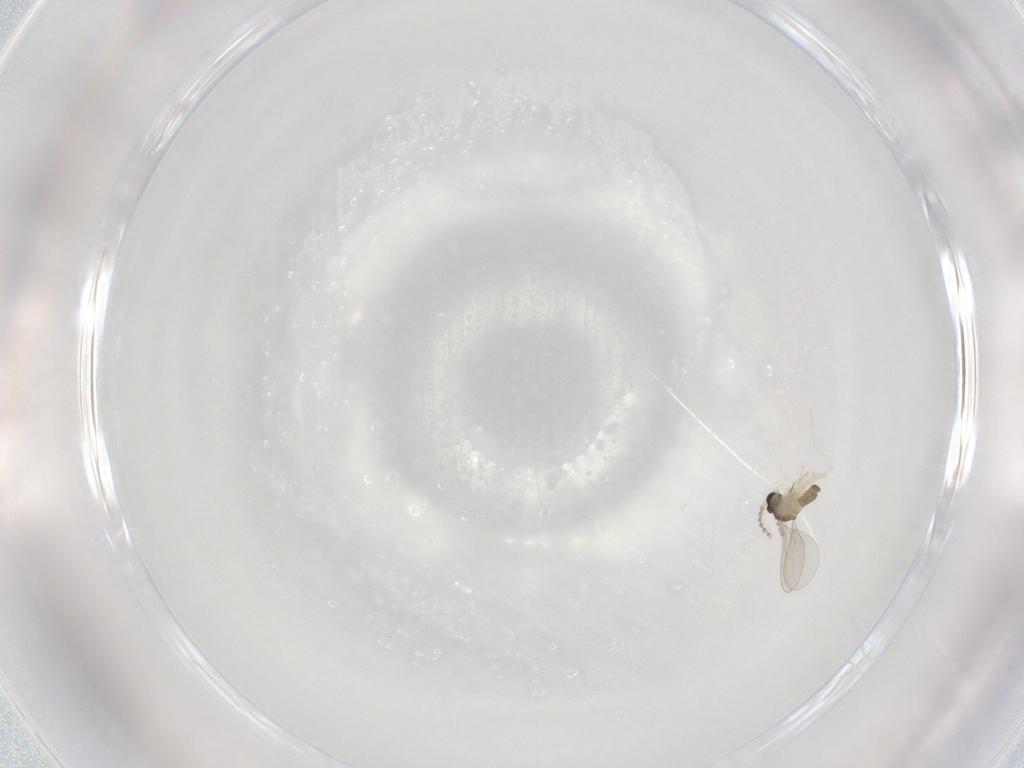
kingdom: Animalia
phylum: Arthropoda
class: Insecta
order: Diptera
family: Cecidomyiidae
